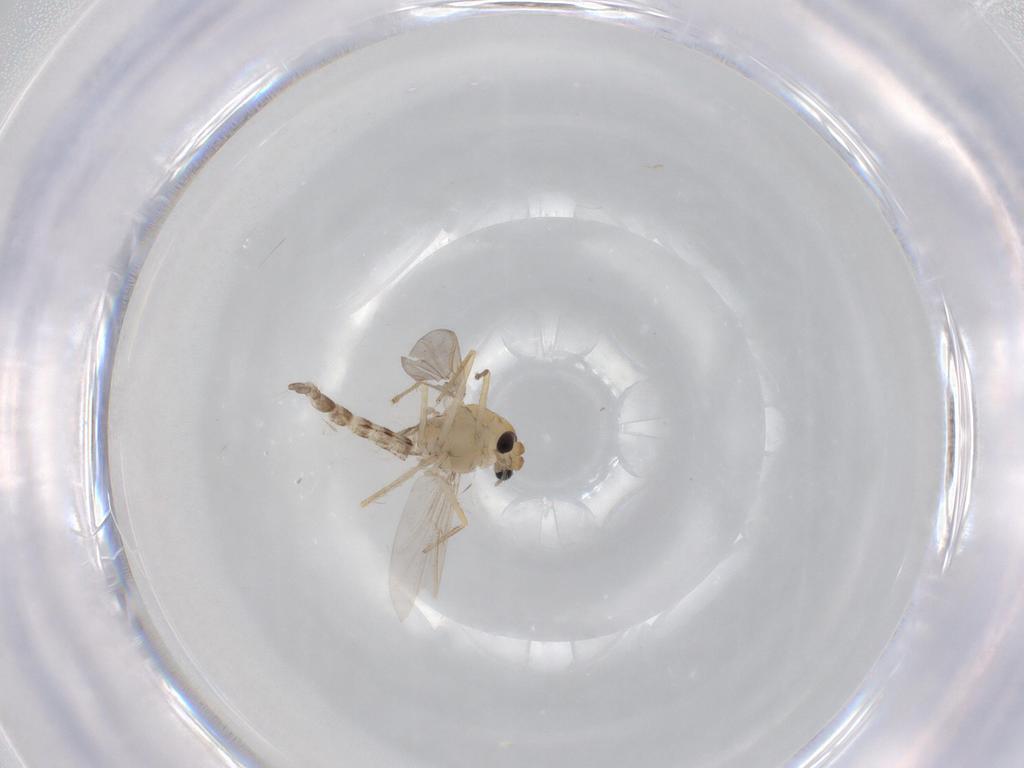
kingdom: Animalia
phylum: Arthropoda
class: Insecta
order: Diptera
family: Chironomidae
